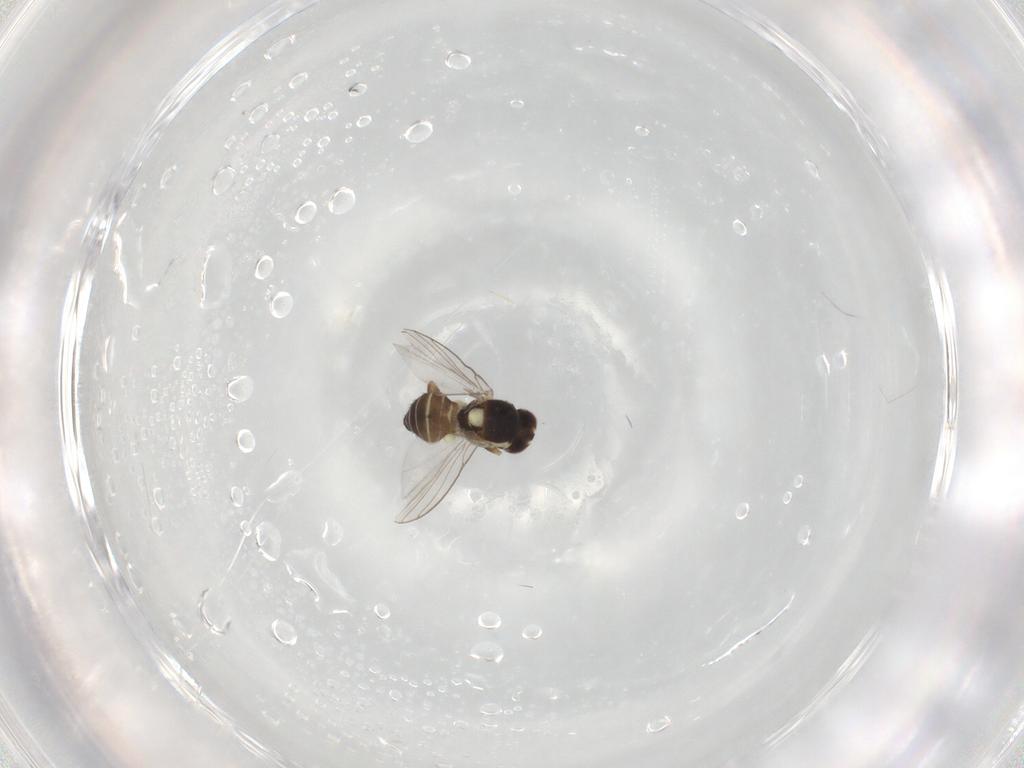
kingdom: Animalia
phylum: Arthropoda
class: Insecta
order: Diptera
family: Agromyzidae
